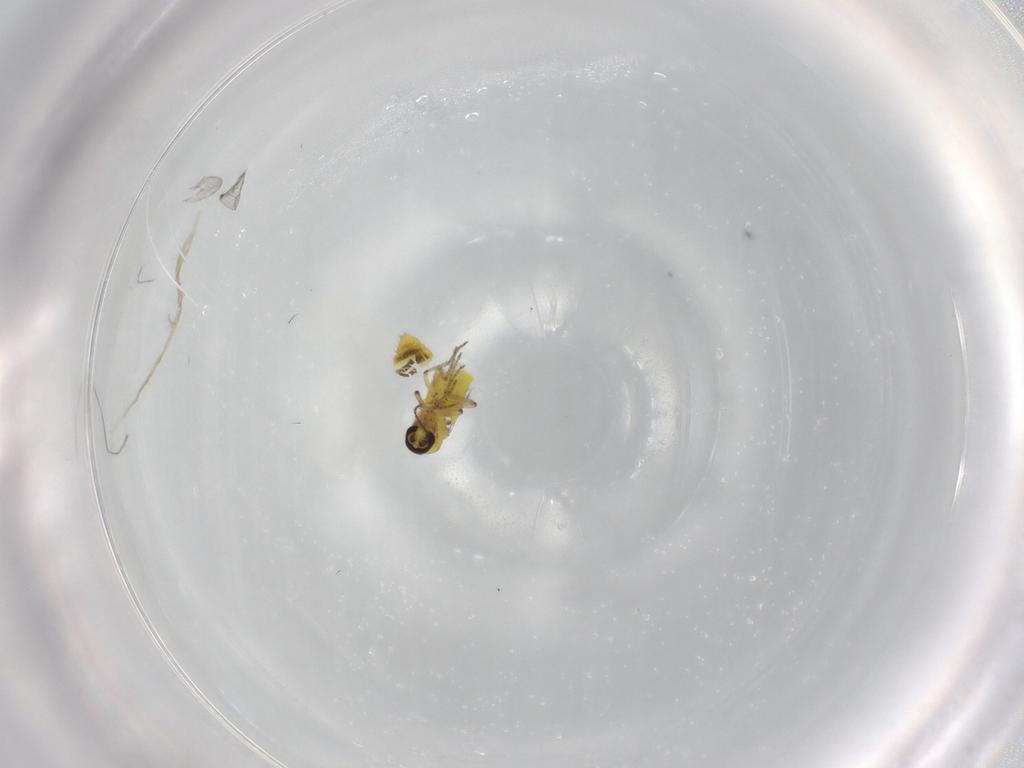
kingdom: Animalia
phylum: Arthropoda
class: Insecta
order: Diptera
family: Ceratopogonidae
